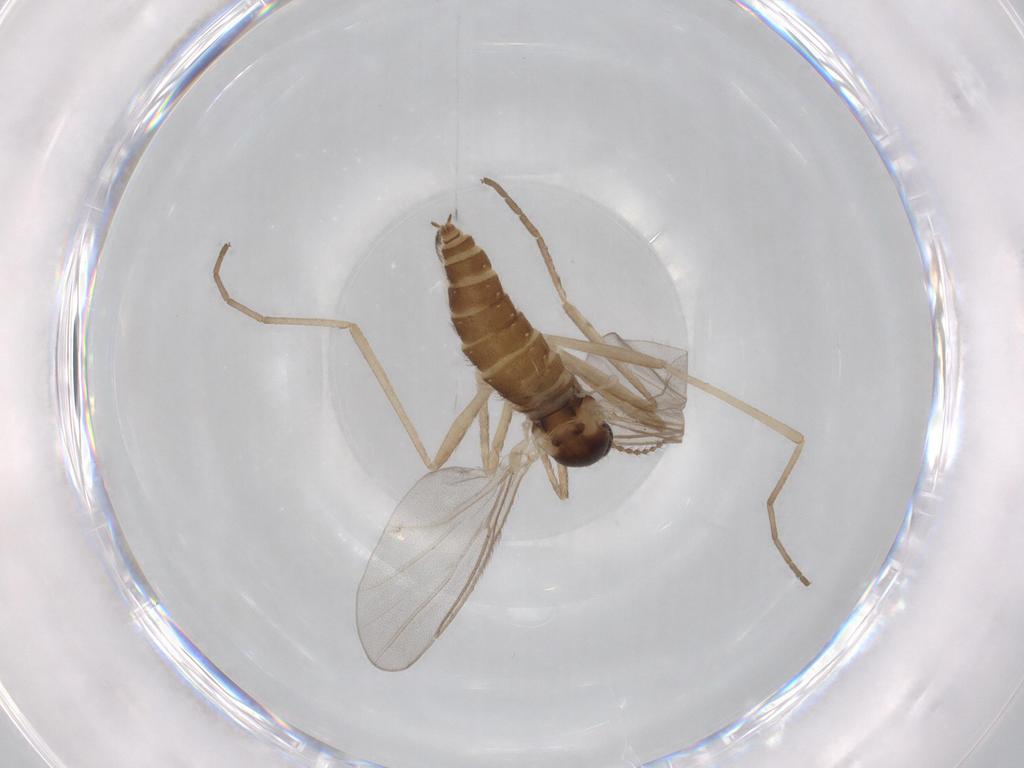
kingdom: Animalia
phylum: Arthropoda
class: Insecta
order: Diptera
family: Cecidomyiidae
